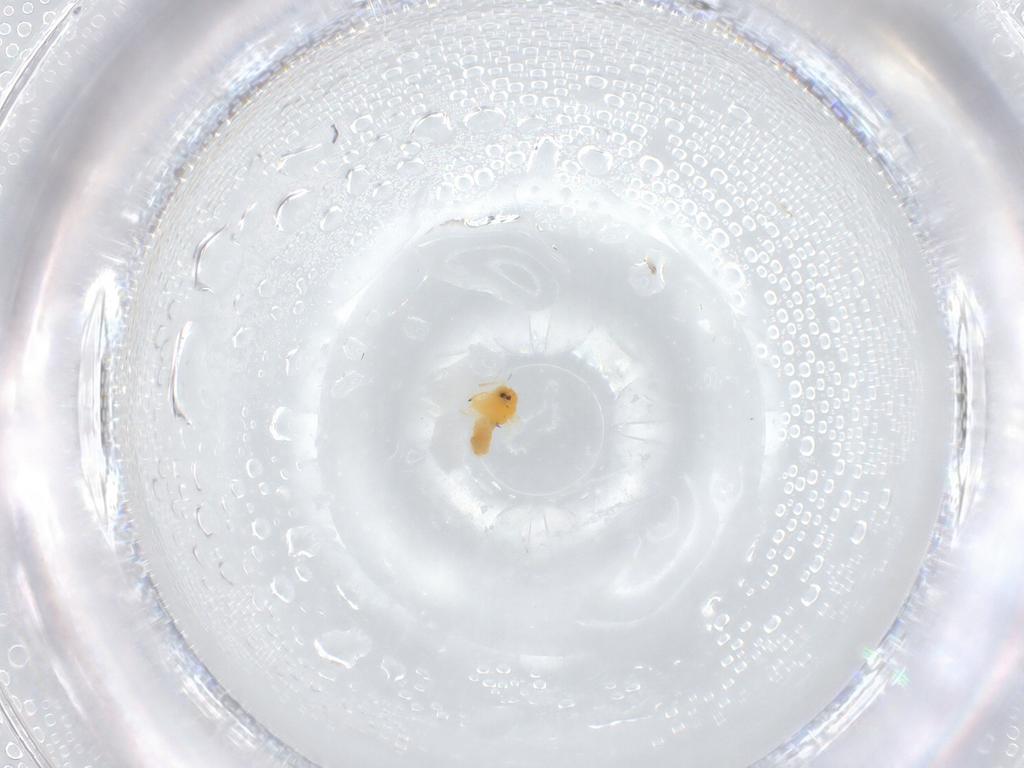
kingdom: Animalia
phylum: Arthropoda
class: Insecta
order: Hemiptera
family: Aleyrodidae
